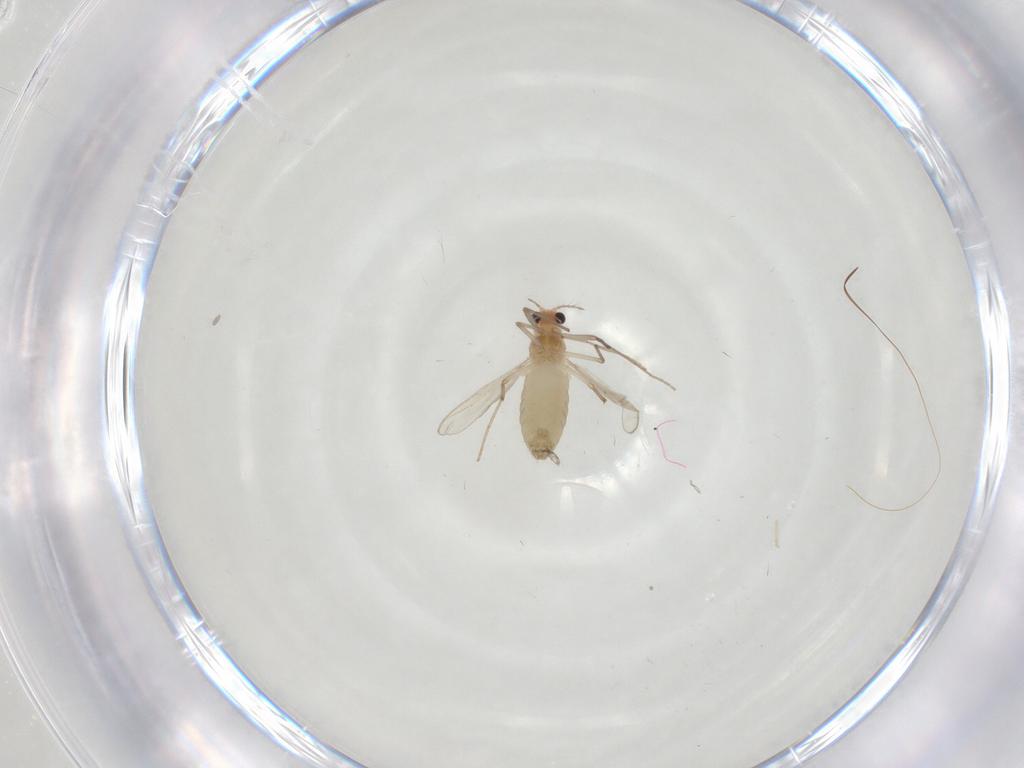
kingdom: Animalia
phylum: Arthropoda
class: Insecta
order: Diptera
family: Chironomidae
